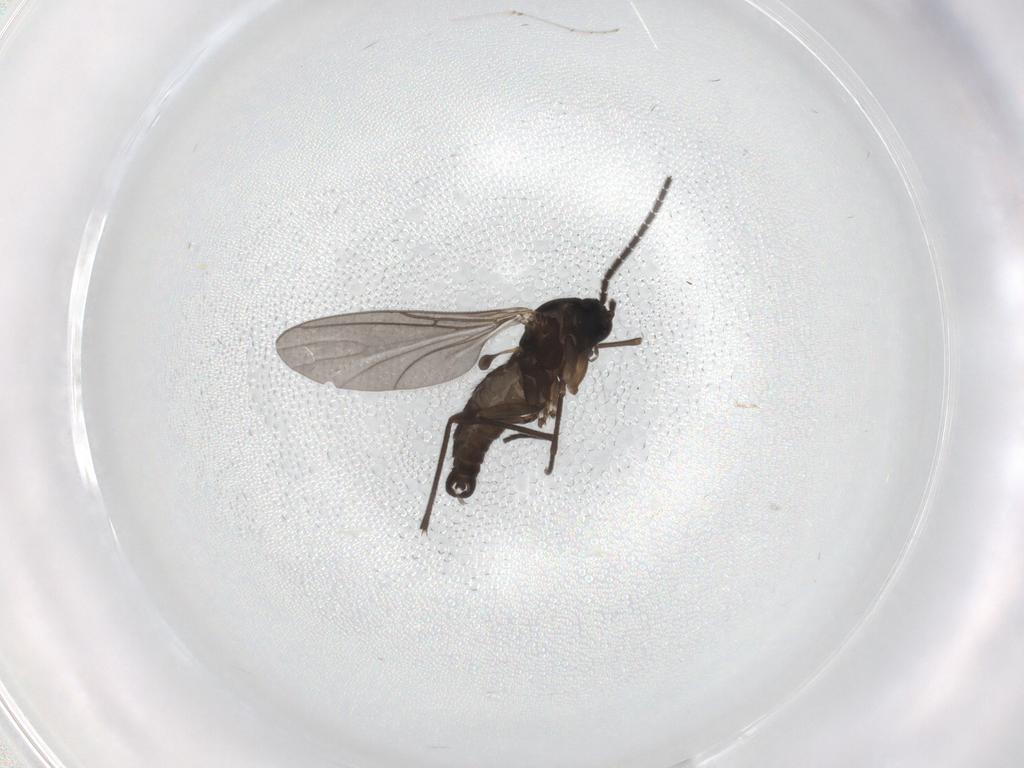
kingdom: Animalia
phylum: Arthropoda
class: Insecta
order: Diptera
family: Sciaridae
